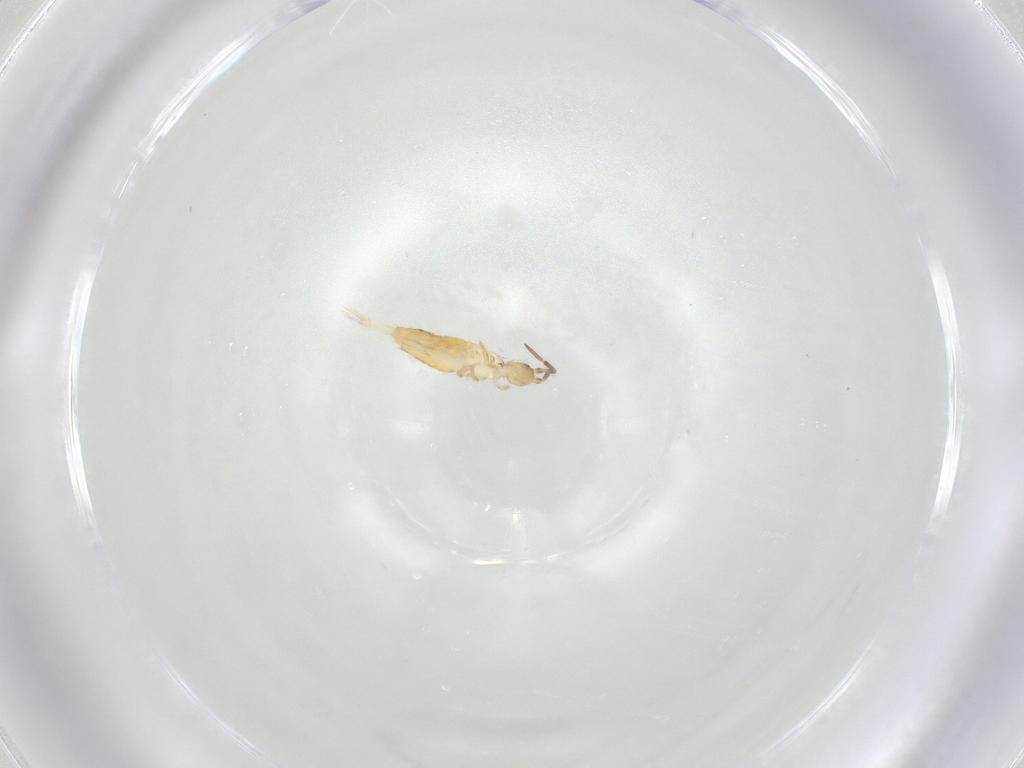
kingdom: Animalia
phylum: Arthropoda
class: Collembola
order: Entomobryomorpha
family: Entomobryidae
